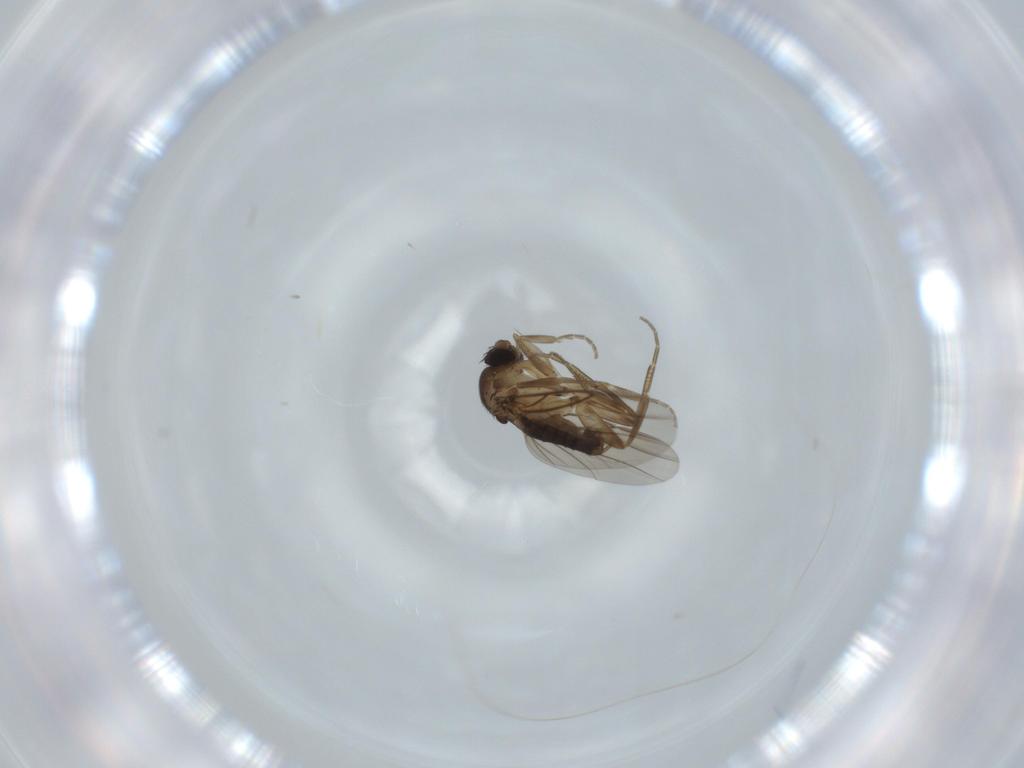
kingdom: Animalia
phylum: Arthropoda
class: Insecta
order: Diptera
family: Phoridae
